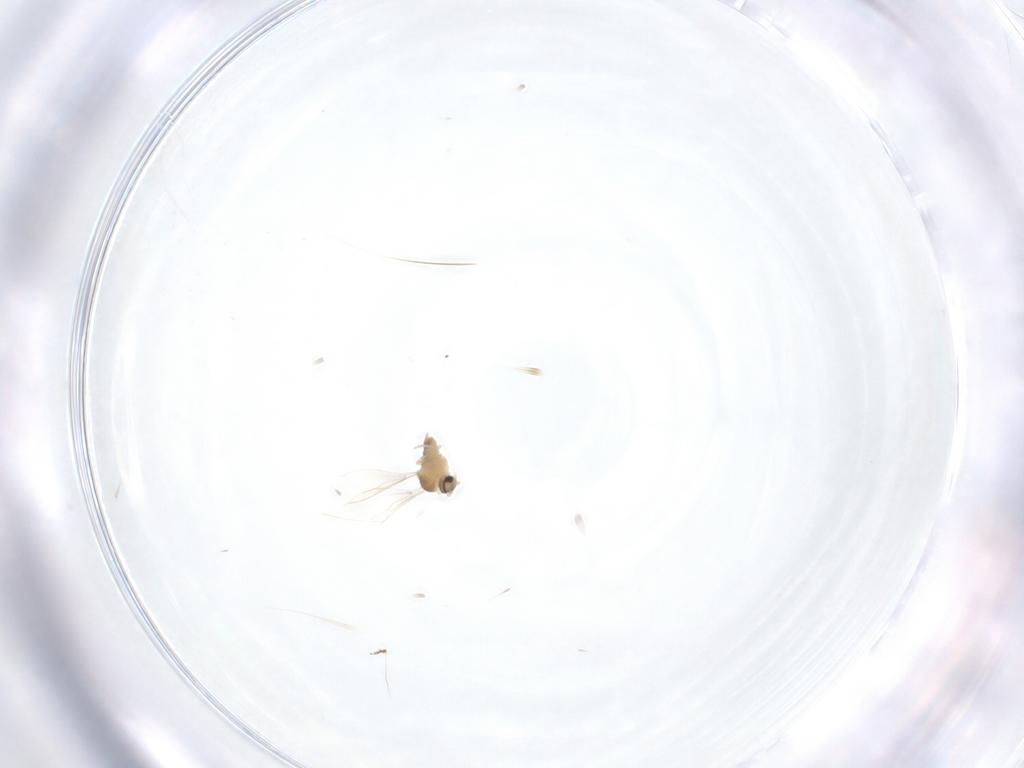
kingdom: Animalia
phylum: Arthropoda
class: Insecta
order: Diptera
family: Cecidomyiidae
